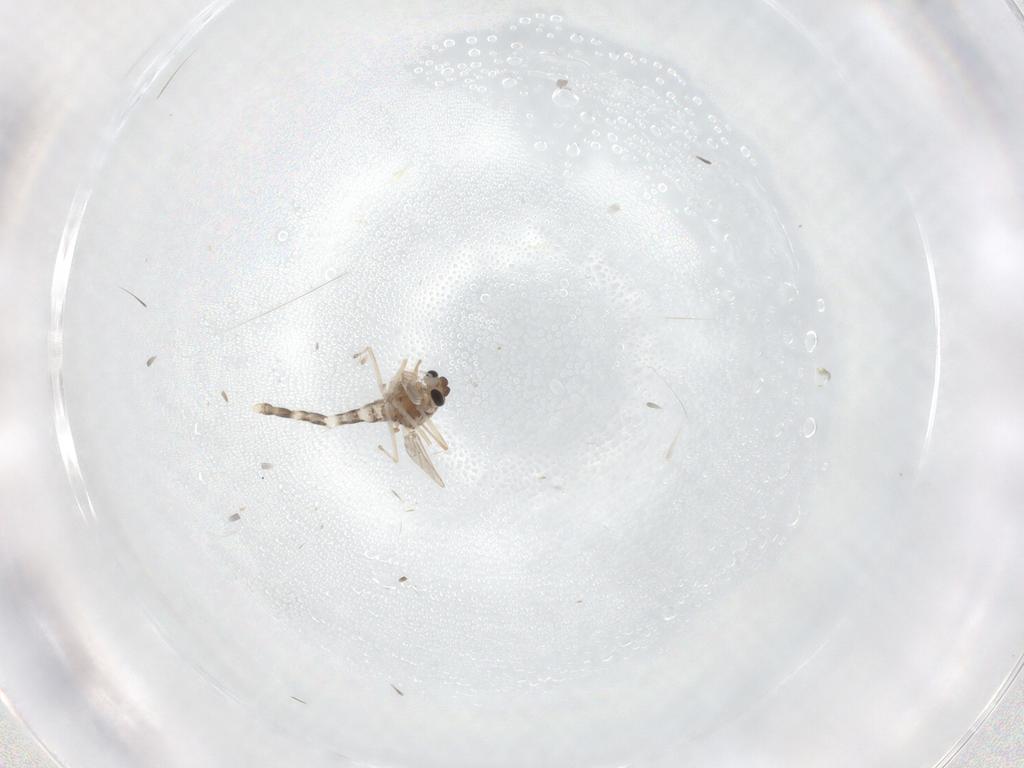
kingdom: Animalia
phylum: Arthropoda
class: Insecta
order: Diptera
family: Chironomidae
